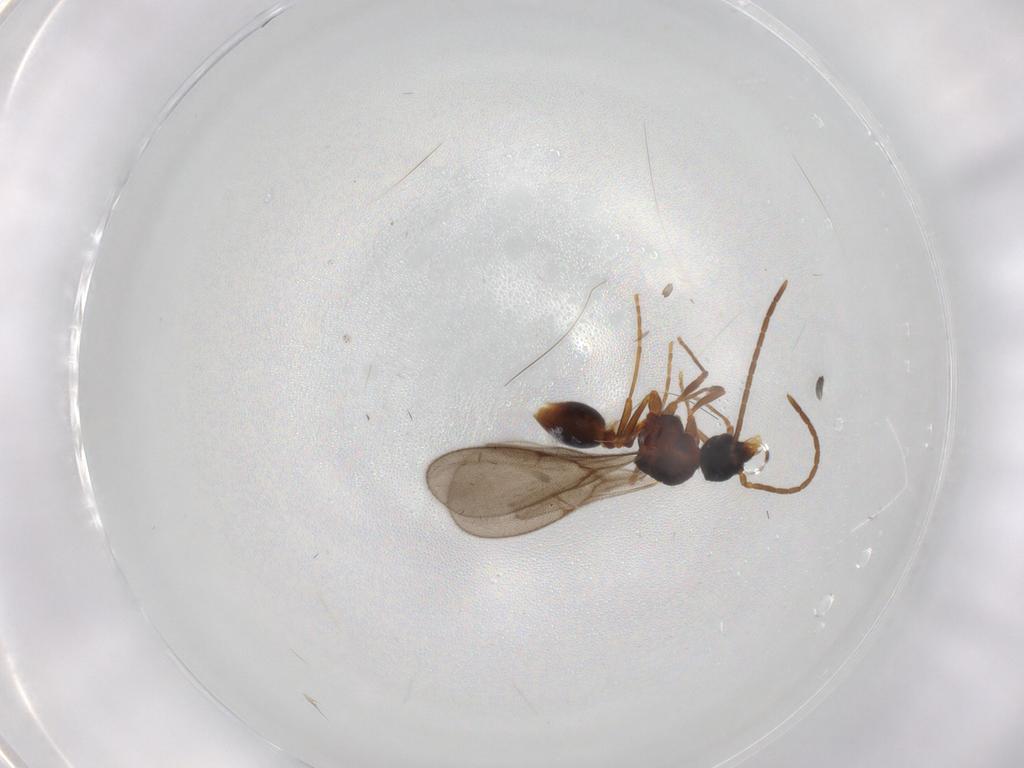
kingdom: Animalia
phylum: Arthropoda
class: Insecta
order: Hymenoptera
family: Formicidae
